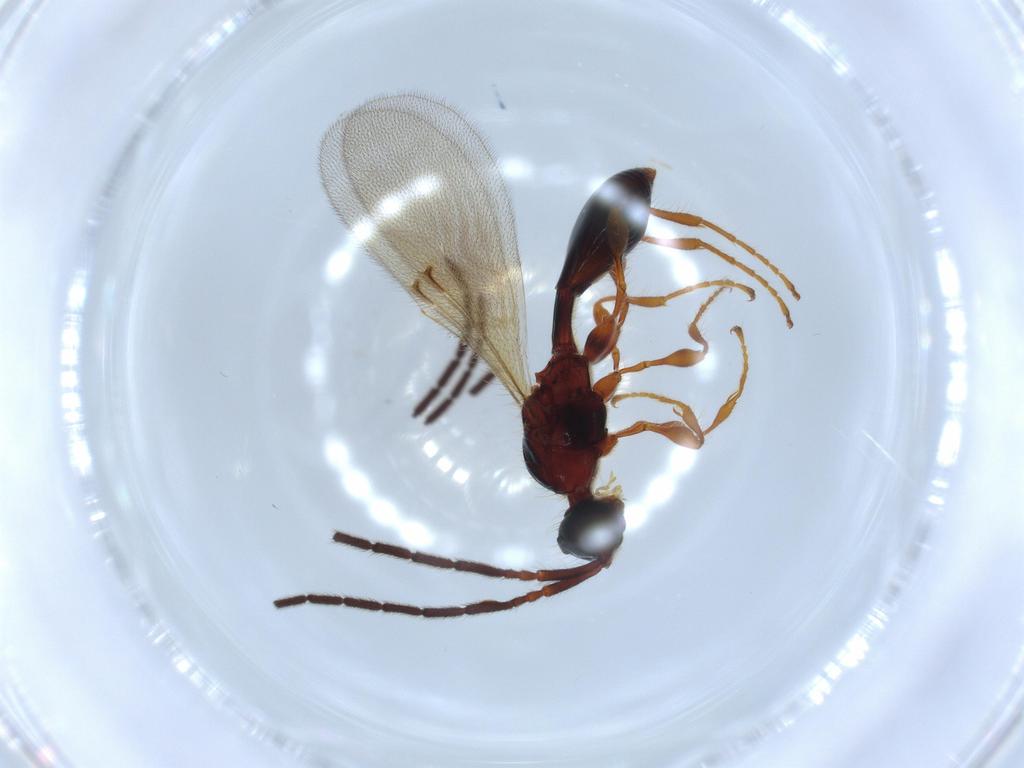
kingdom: Animalia
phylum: Arthropoda
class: Insecta
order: Hymenoptera
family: Diapriidae
